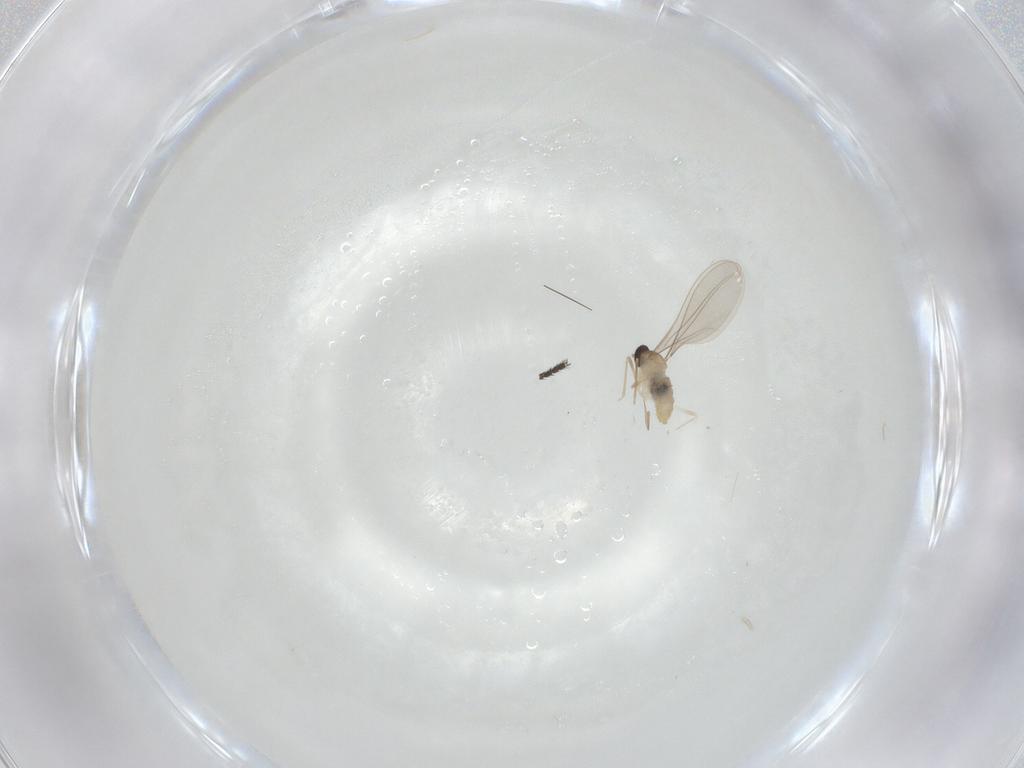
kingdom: Animalia
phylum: Arthropoda
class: Insecta
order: Diptera
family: Cecidomyiidae
